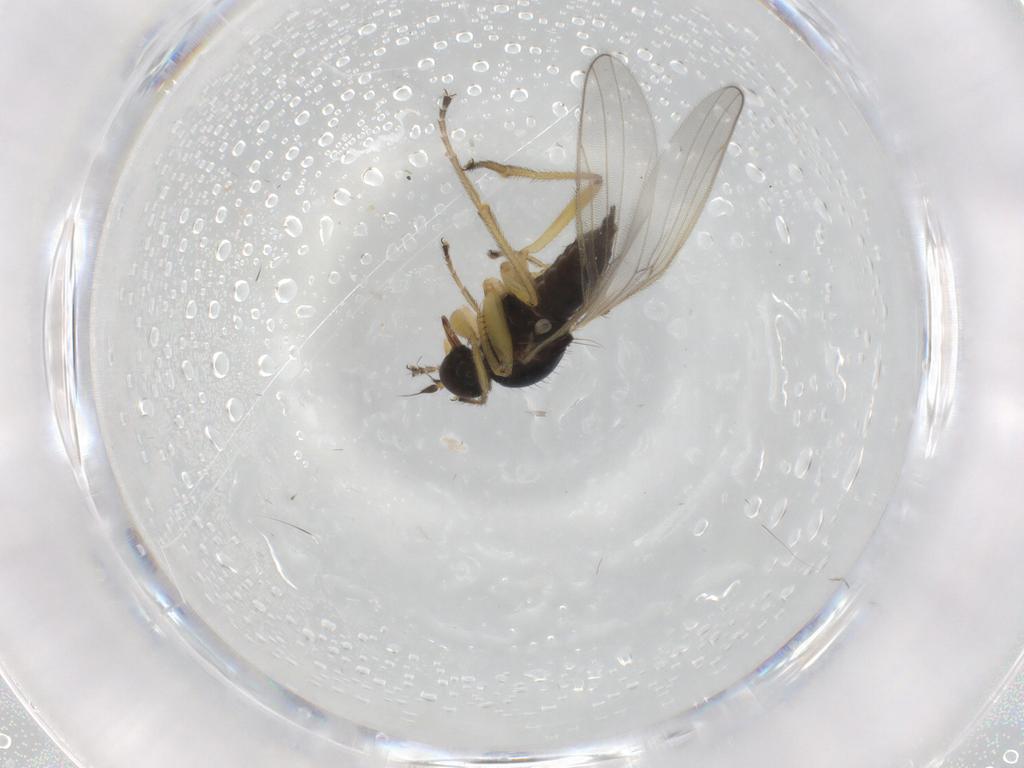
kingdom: Animalia
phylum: Arthropoda
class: Insecta
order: Diptera
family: Hybotidae
